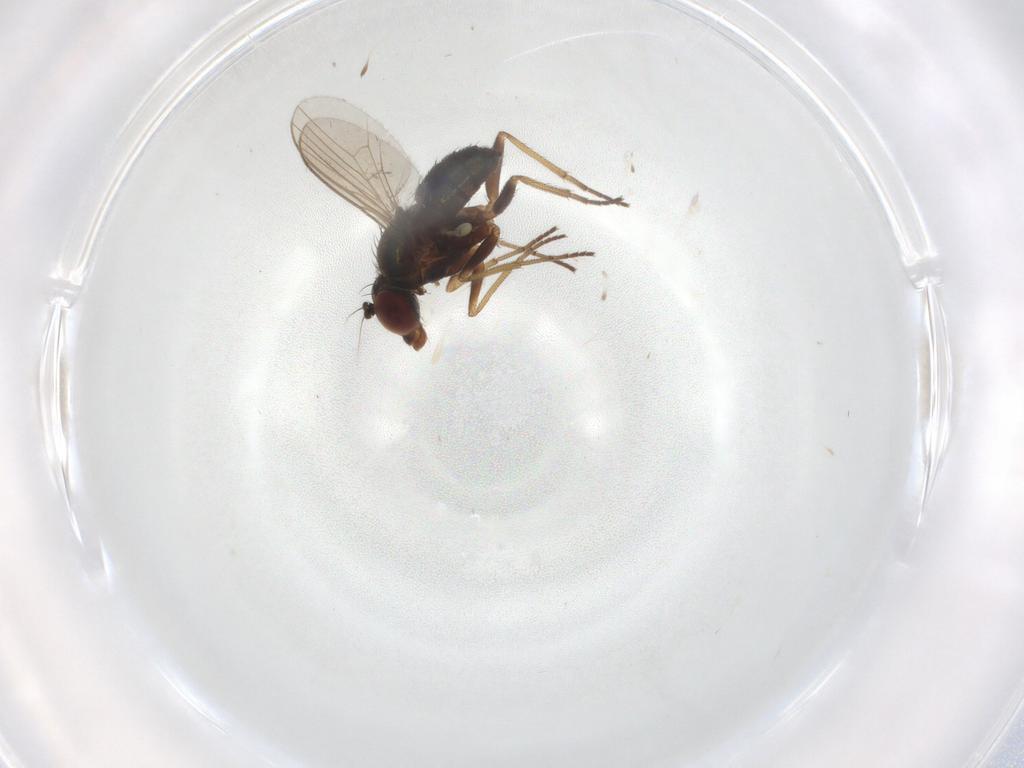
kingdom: Animalia
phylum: Arthropoda
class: Insecta
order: Diptera
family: Dolichopodidae
